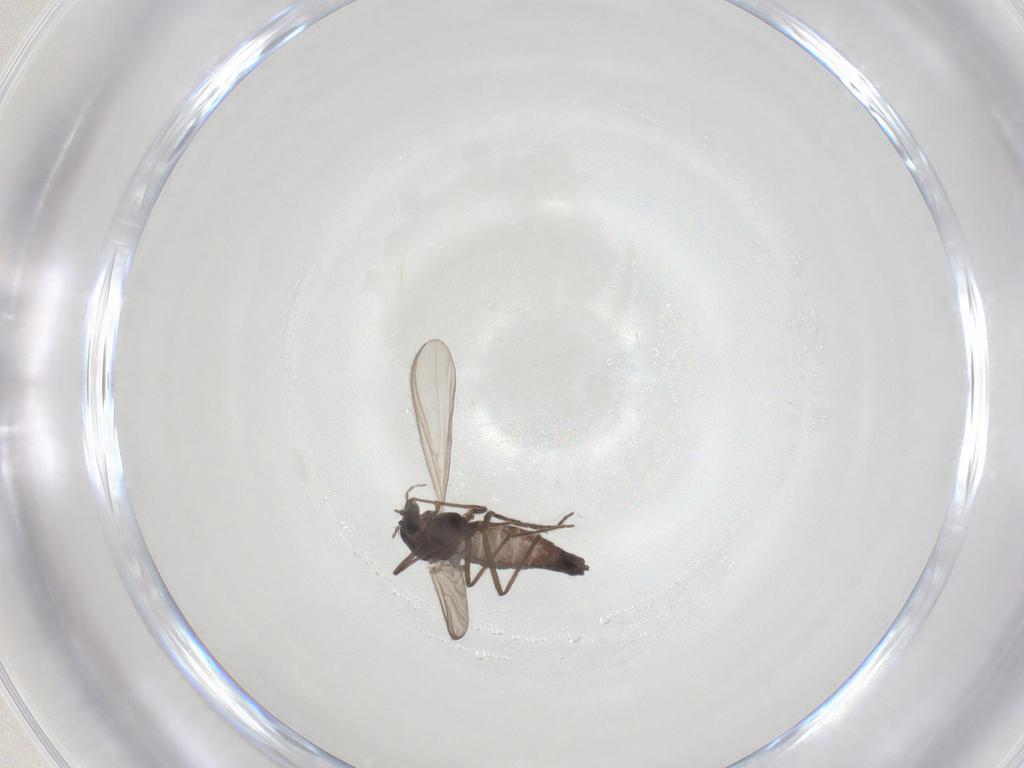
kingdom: Animalia
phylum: Arthropoda
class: Insecta
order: Diptera
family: Chironomidae
